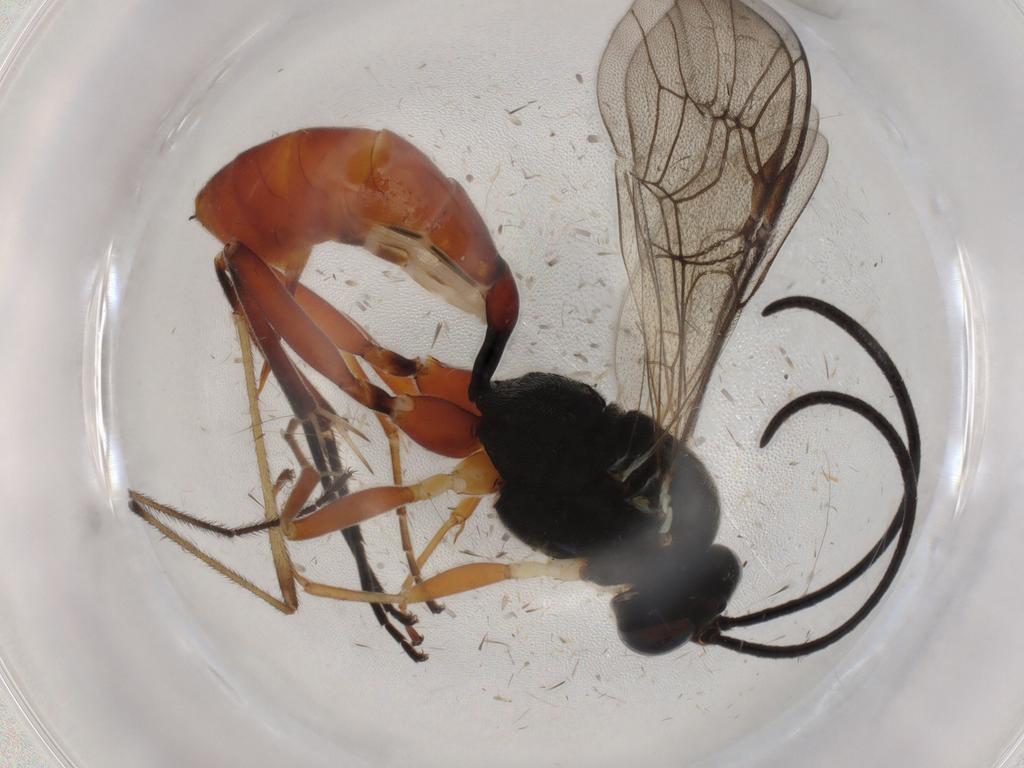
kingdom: Animalia
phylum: Arthropoda
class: Insecta
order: Hymenoptera
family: Ichneumonidae
